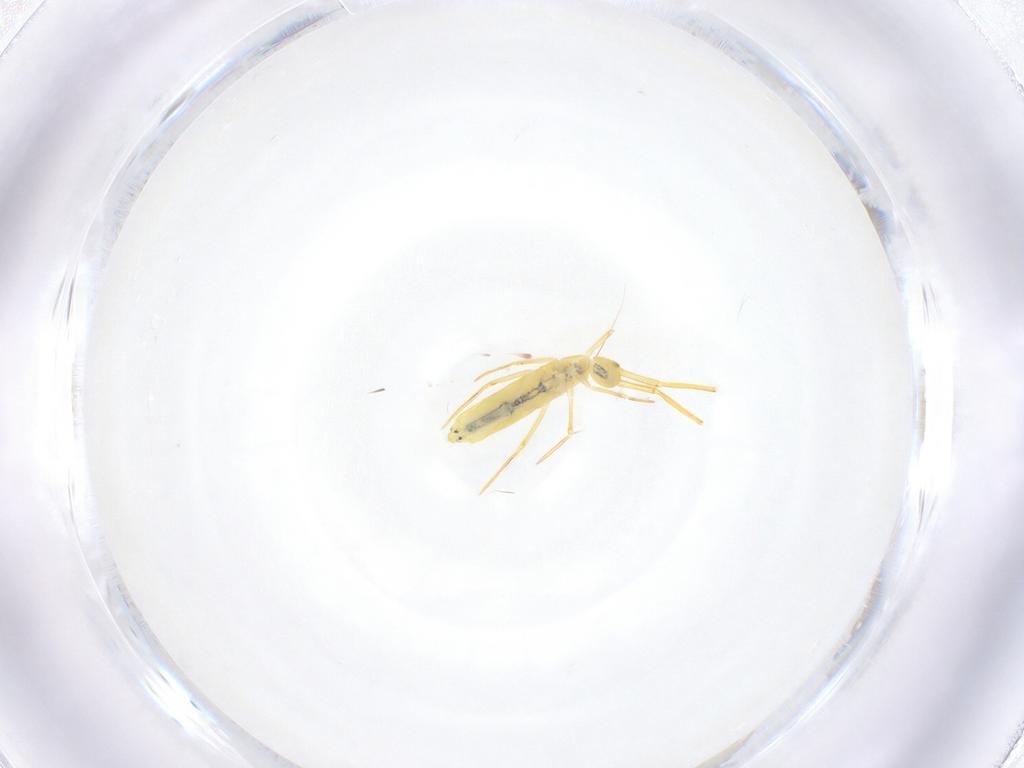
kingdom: Animalia
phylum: Arthropoda
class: Collembola
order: Entomobryomorpha
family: Entomobryidae
